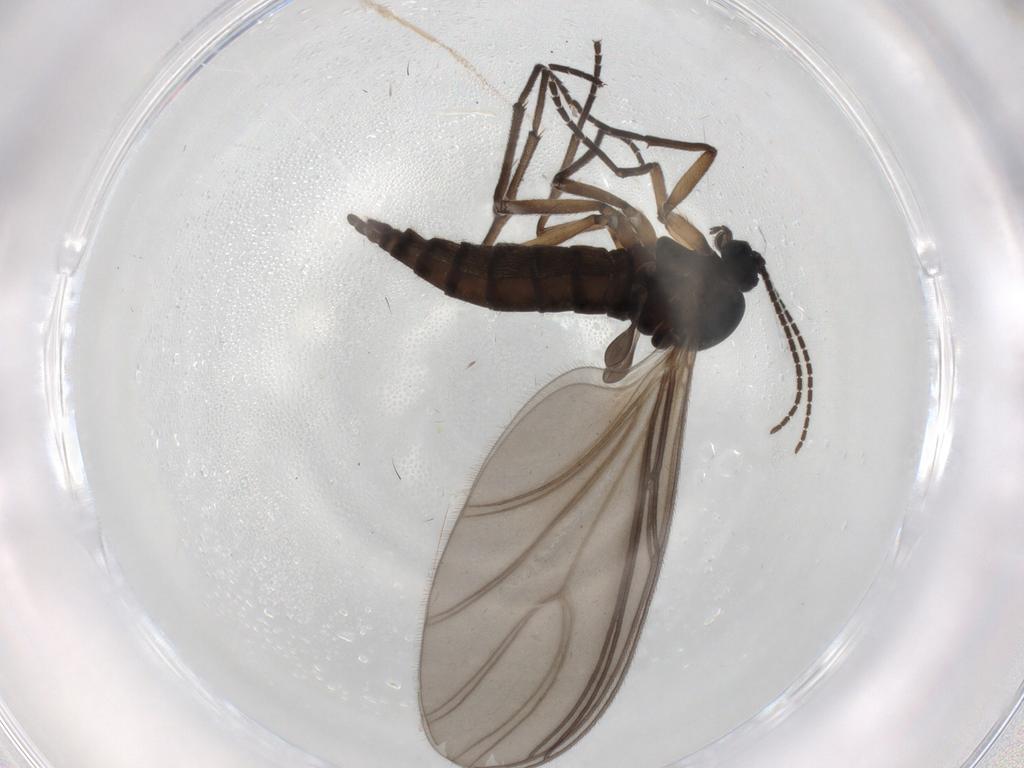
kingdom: Animalia
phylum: Arthropoda
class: Insecta
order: Diptera
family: Sciaridae
